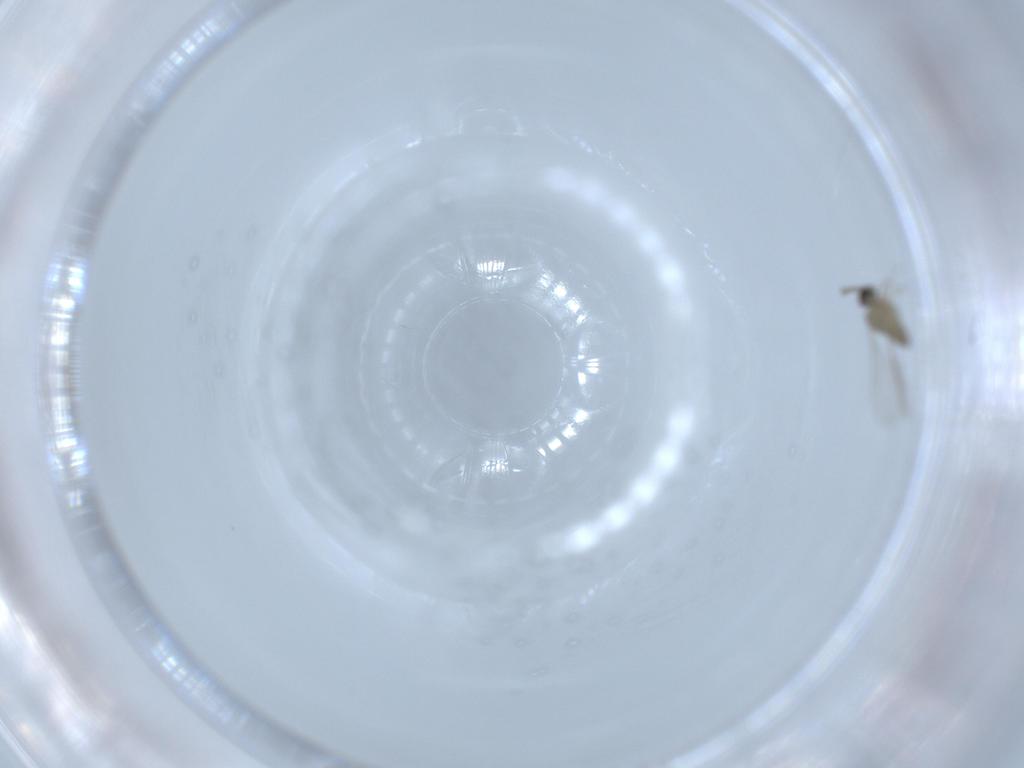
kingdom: Animalia
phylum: Arthropoda
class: Insecta
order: Diptera
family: Cecidomyiidae
